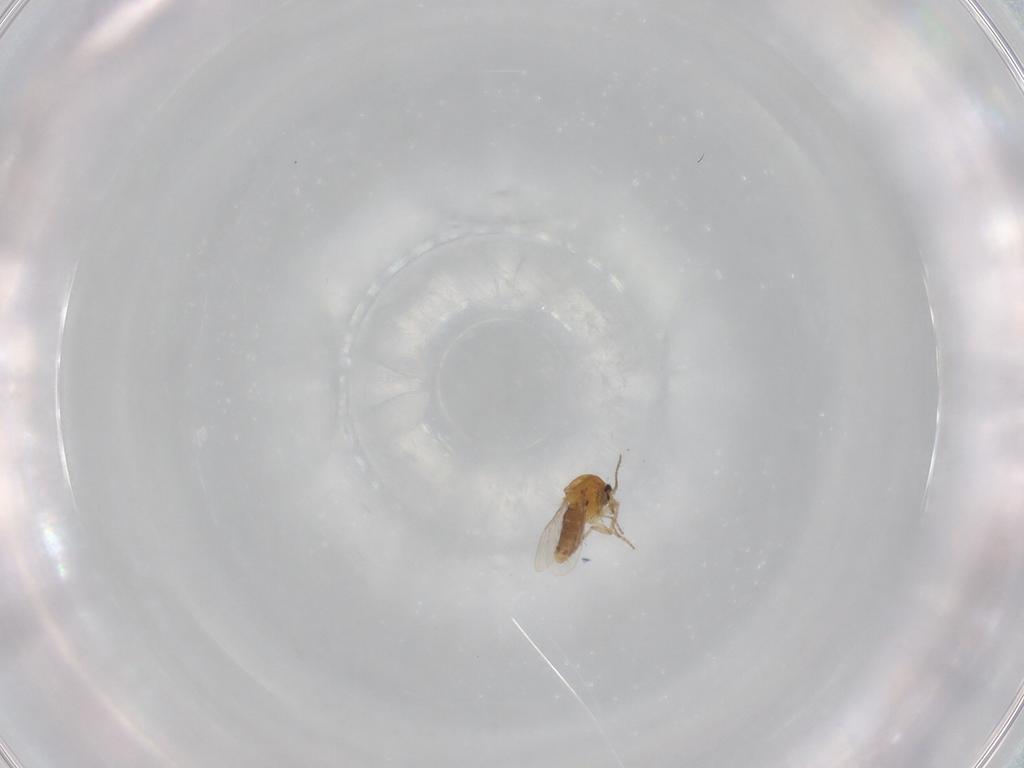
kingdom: Animalia
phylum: Arthropoda
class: Insecta
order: Diptera
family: Ceratopogonidae
